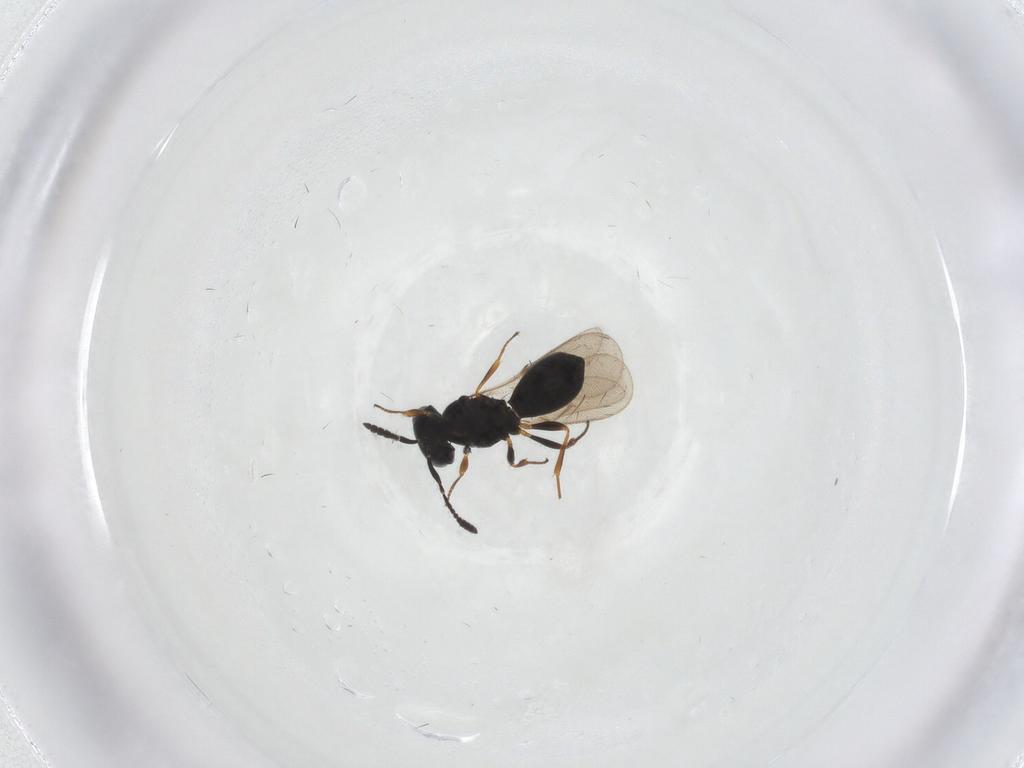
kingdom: Animalia
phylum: Arthropoda
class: Insecta
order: Hymenoptera
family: Scelionidae
